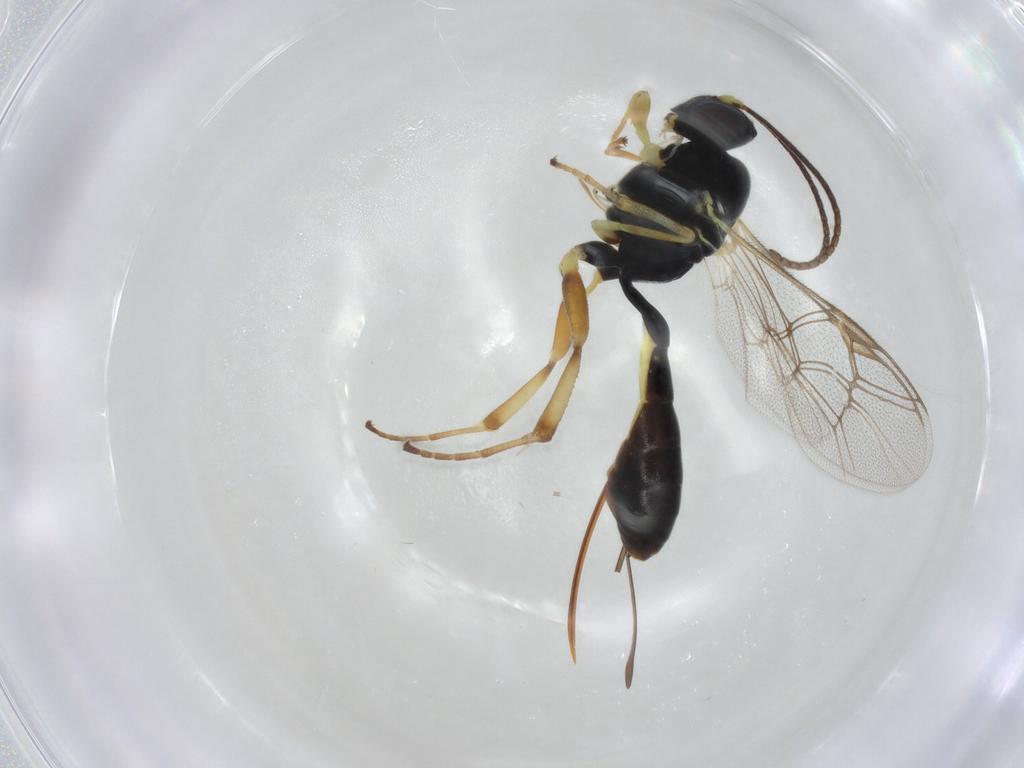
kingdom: Animalia
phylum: Arthropoda
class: Insecta
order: Hymenoptera
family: Ichneumonidae
